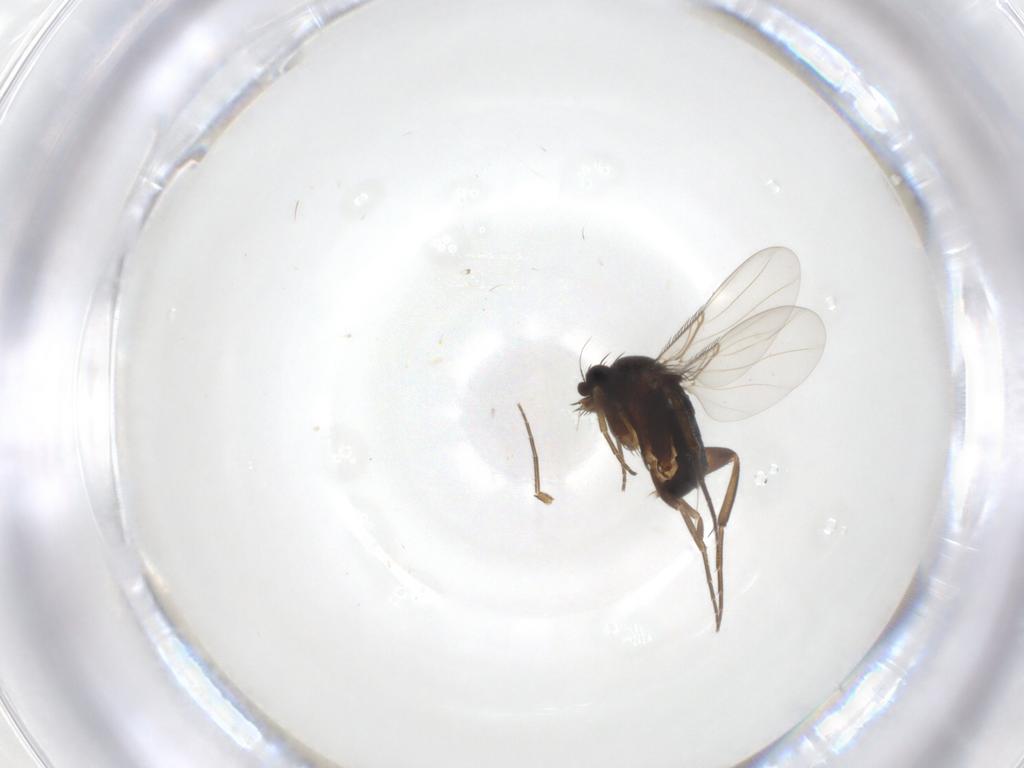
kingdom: Animalia
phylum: Arthropoda
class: Insecta
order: Diptera
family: Phoridae
